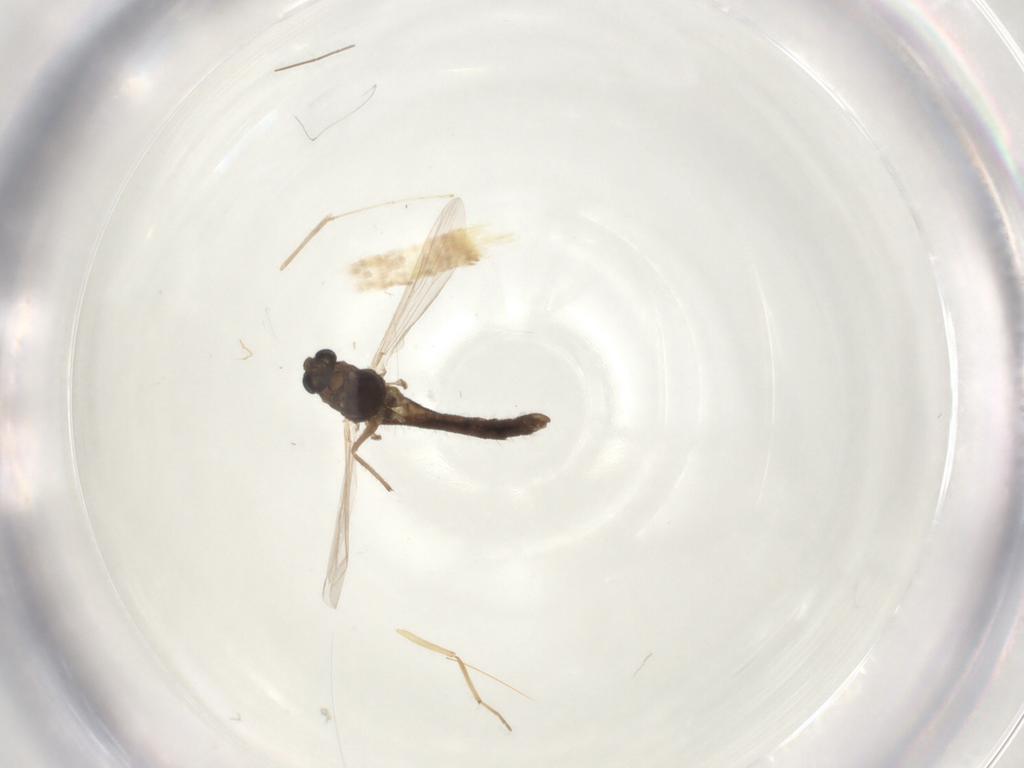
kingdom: Animalia
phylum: Arthropoda
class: Insecta
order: Diptera
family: Chironomidae
